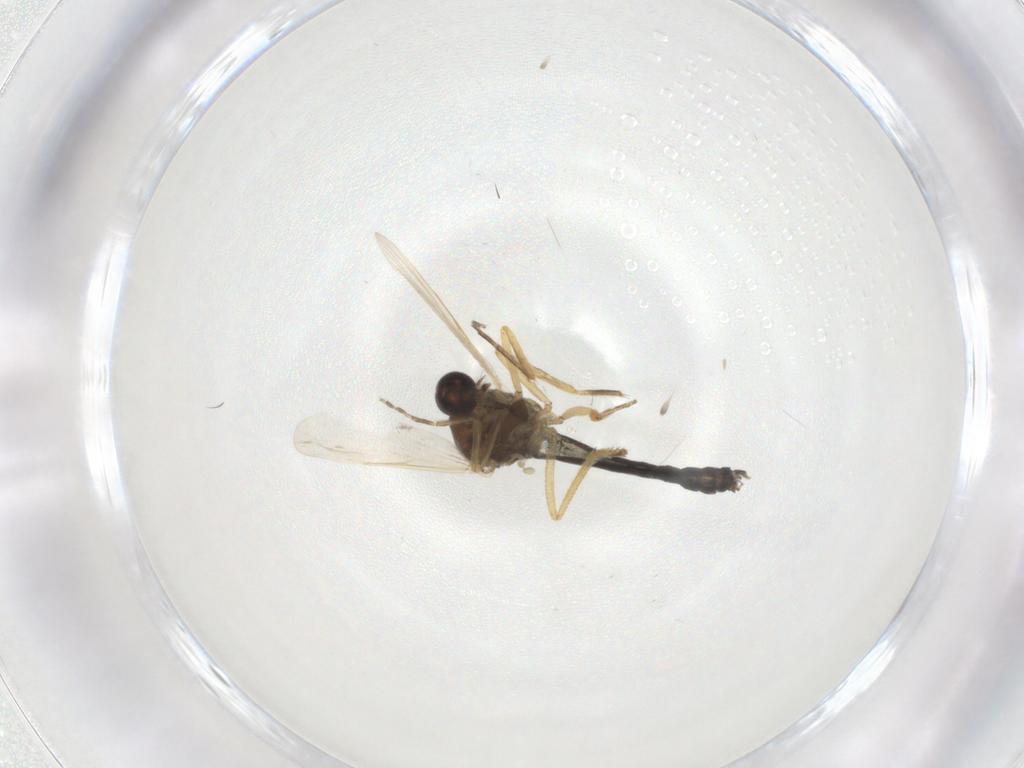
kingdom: Animalia
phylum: Arthropoda
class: Insecta
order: Diptera
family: Ceratopogonidae
